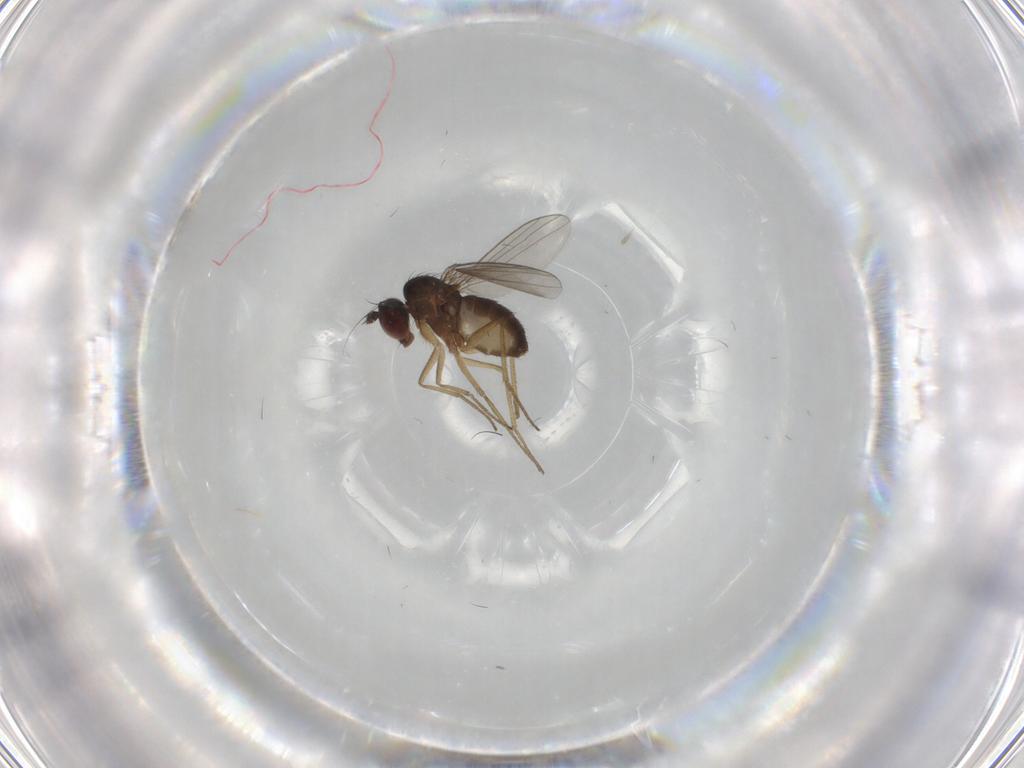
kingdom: Animalia
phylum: Arthropoda
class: Insecta
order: Diptera
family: Dolichopodidae
